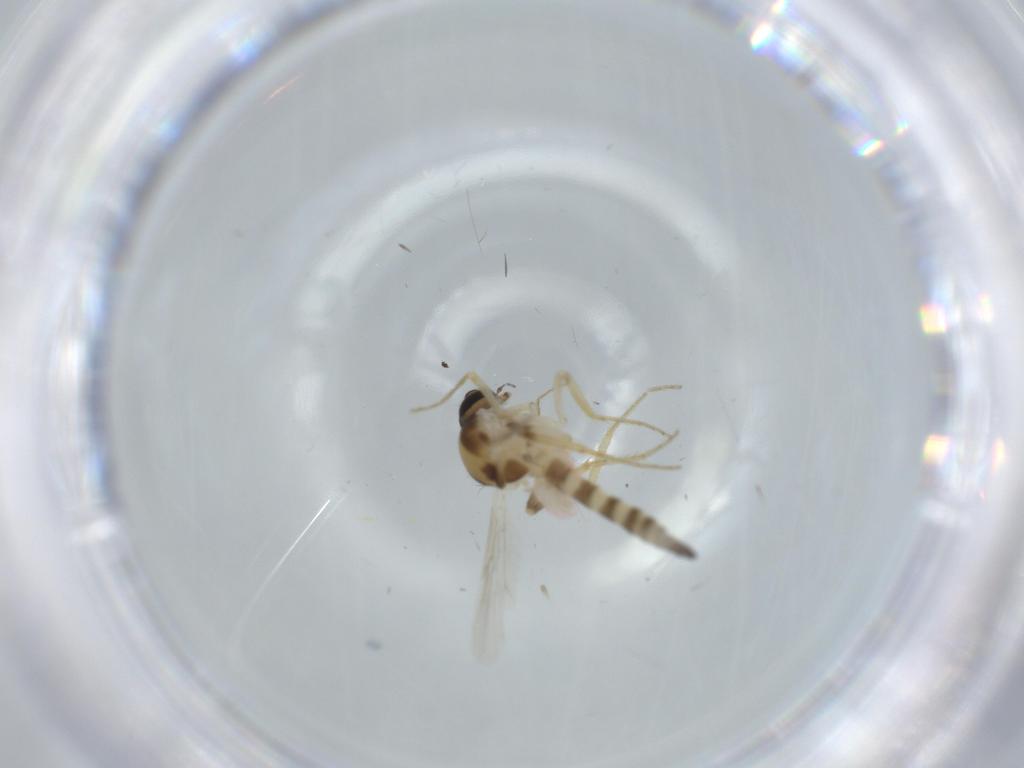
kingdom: Animalia
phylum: Arthropoda
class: Insecta
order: Diptera
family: Ceratopogonidae
